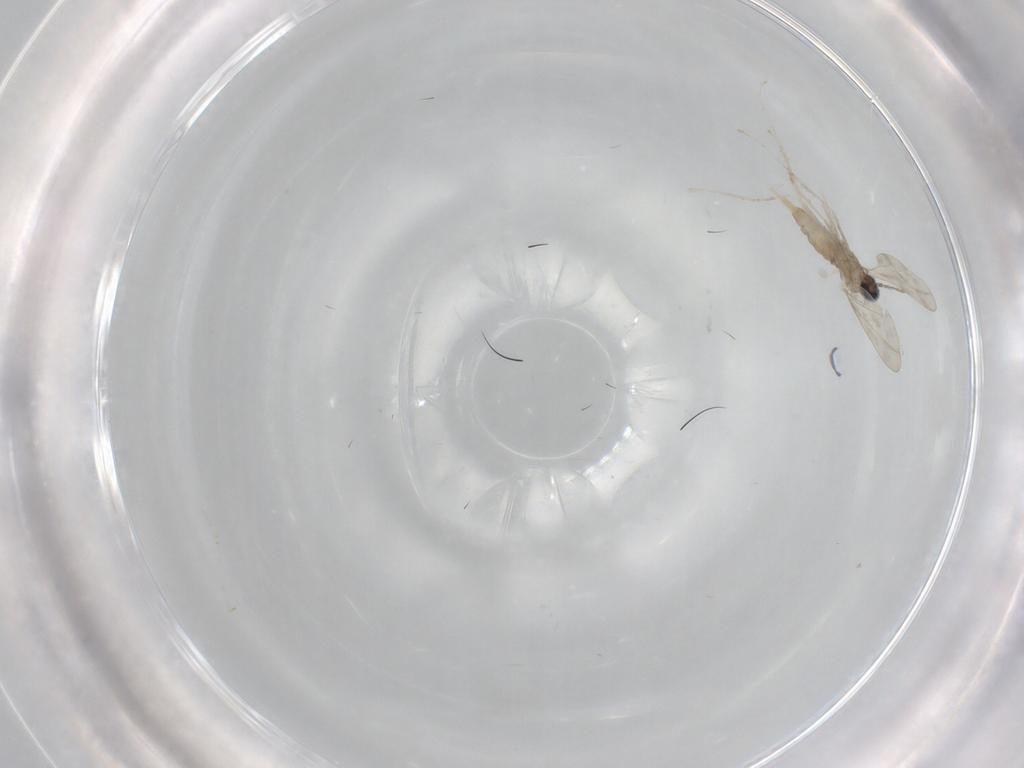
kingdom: Animalia
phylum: Arthropoda
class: Insecta
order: Diptera
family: Cecidomyiidae
